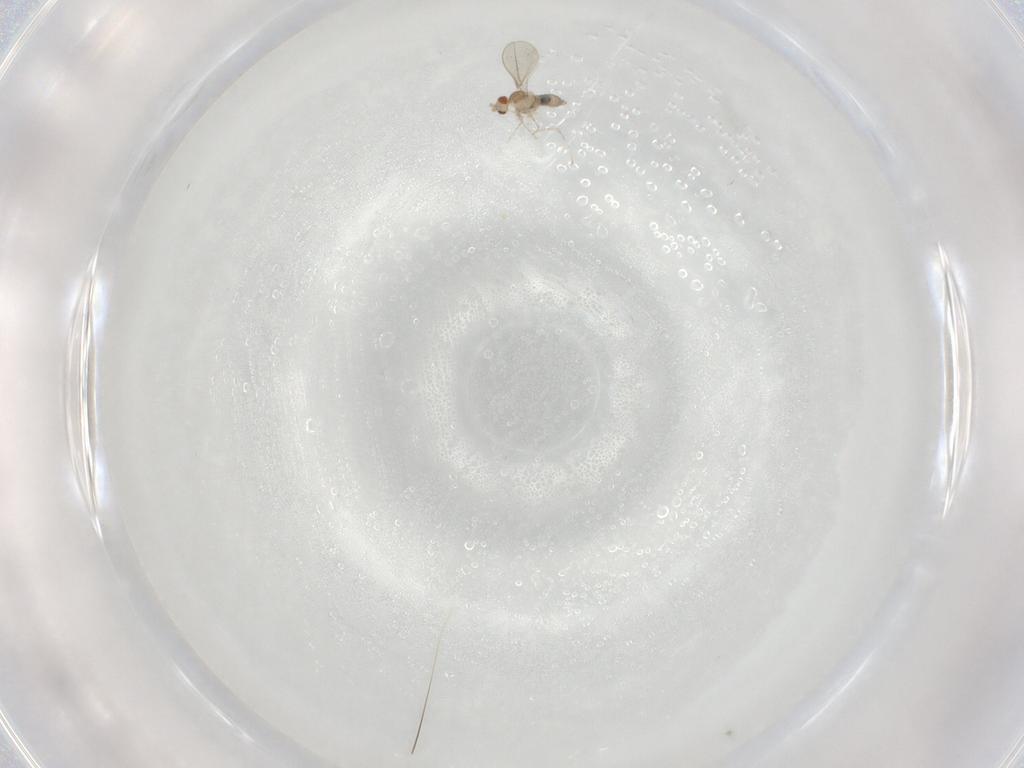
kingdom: Animalia
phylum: Arthropoda
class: Insecta
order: Diptera
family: Cecidomyiidae
